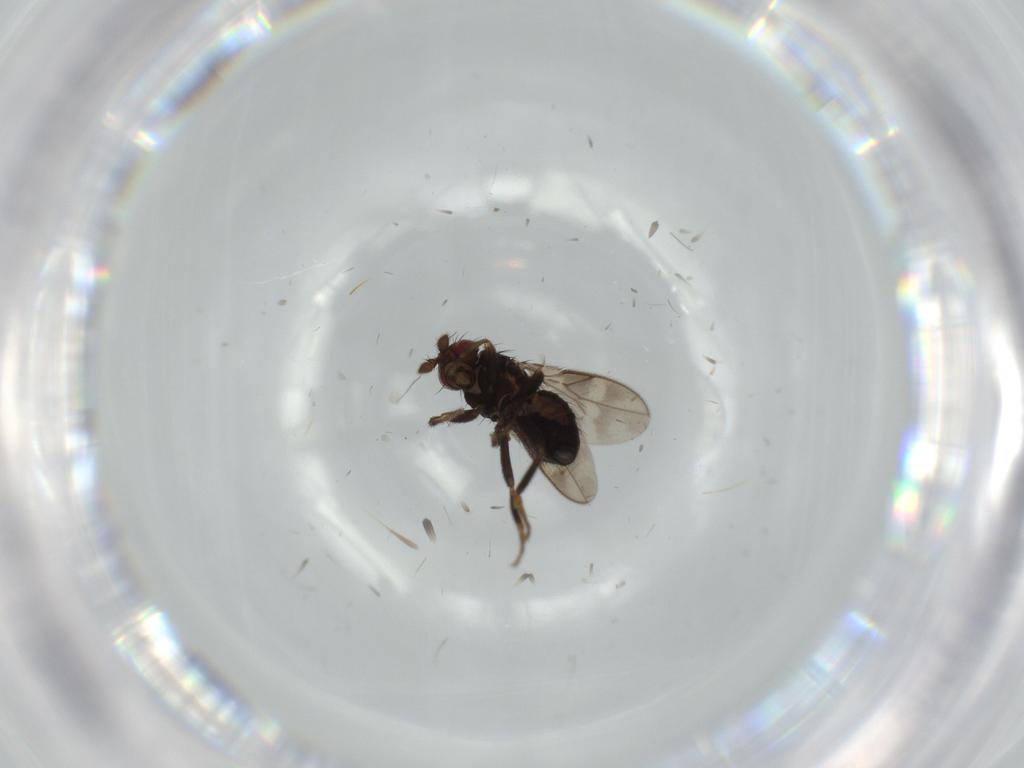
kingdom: Animalia
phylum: Arthropoda
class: Insecta
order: Diptera
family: Sphaeroceridae
